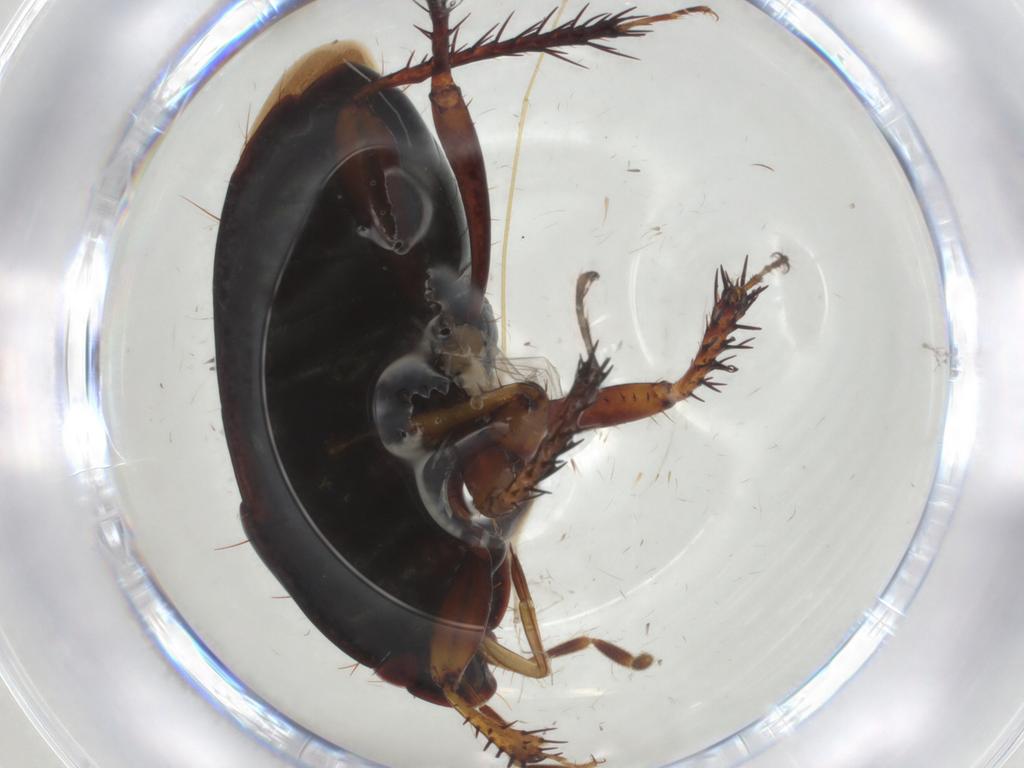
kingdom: Animalia
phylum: Arthropoda
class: Insecta
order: Hemiptera
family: Cydnidae
